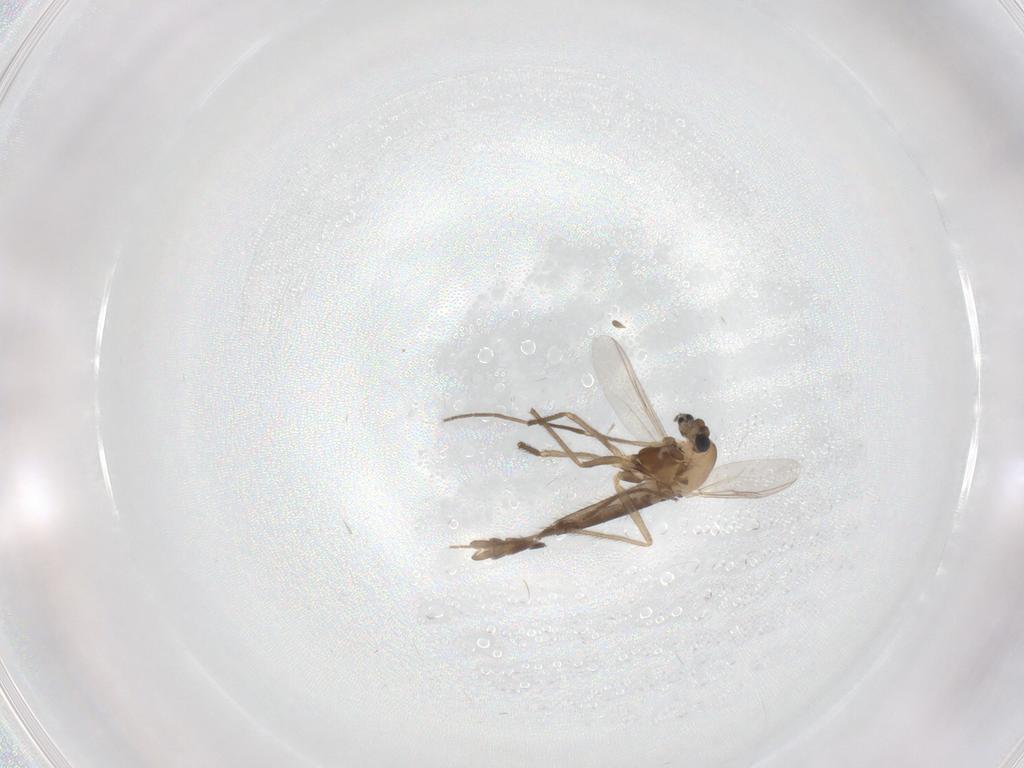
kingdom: Animalia
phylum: Arthropoda
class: Insecta
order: Diptera
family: Chironomidae
